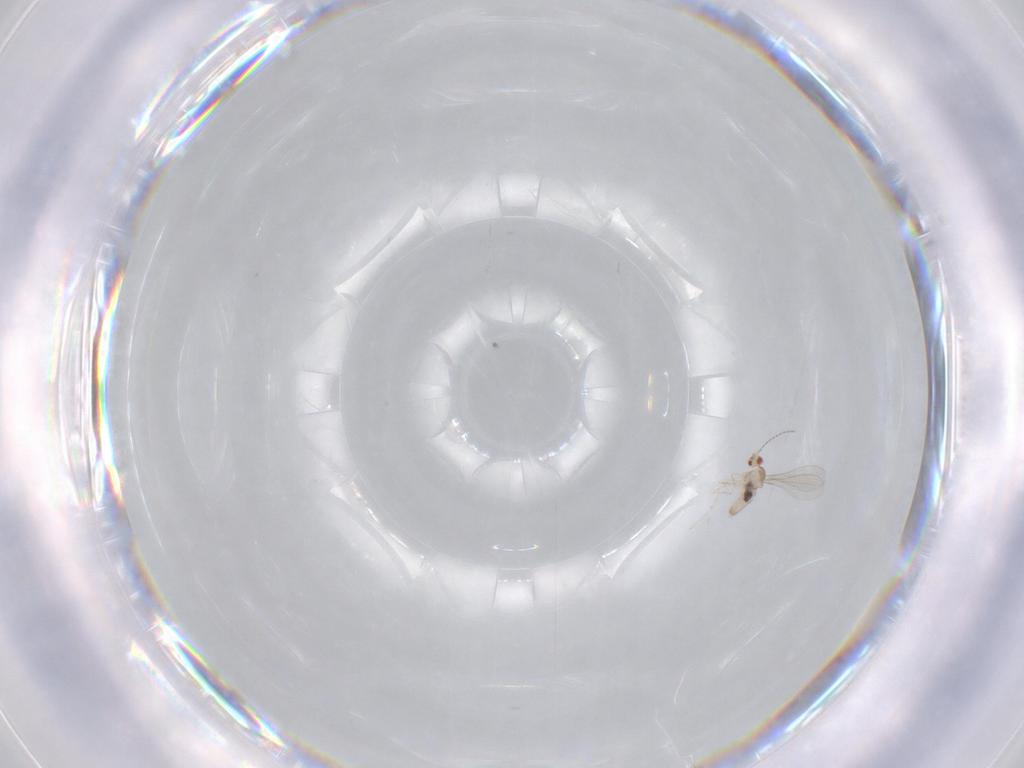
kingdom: Animalia
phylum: Arthropoda
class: Insecta
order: Diptera
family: Cecidomyiidae
